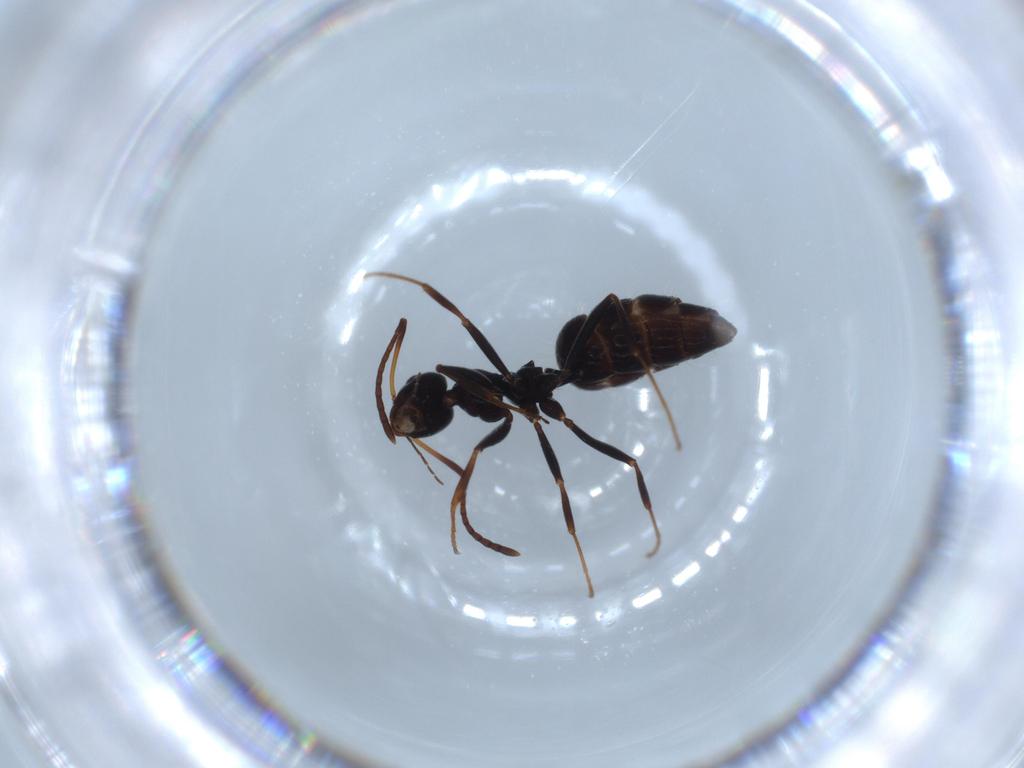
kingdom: Animalia
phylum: Arthropoda
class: Insecta
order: Hymenoptera
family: Formicidae
